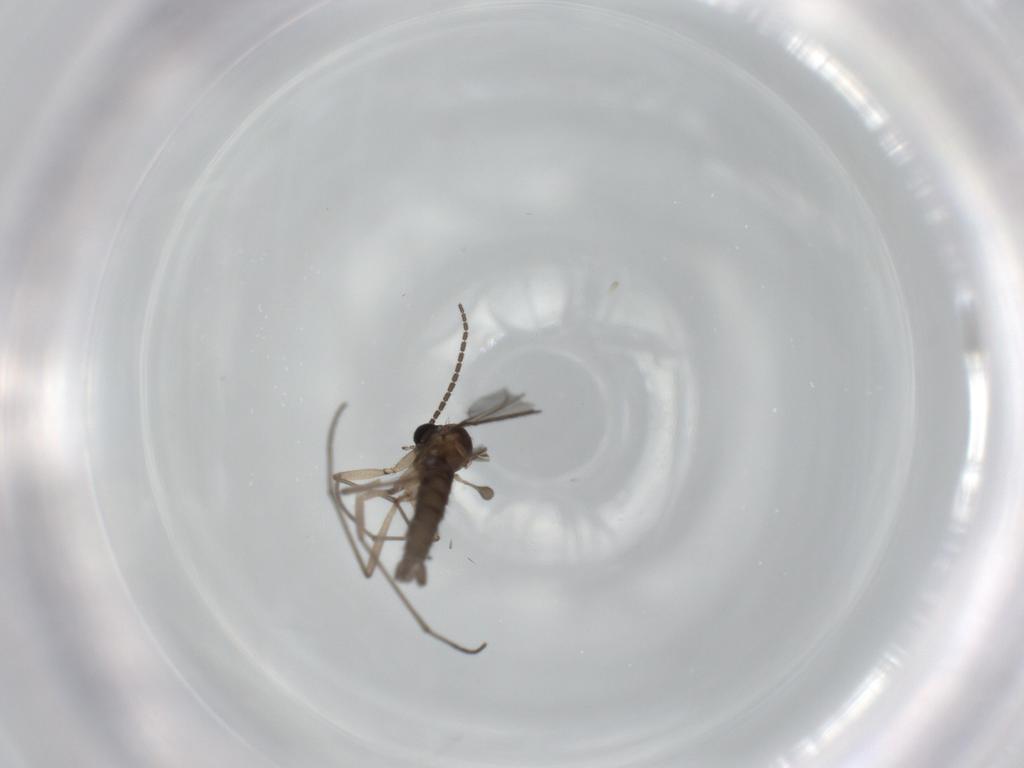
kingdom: Animalia
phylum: Arthropoda
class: Insecta
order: Diptera
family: Sciaridae
